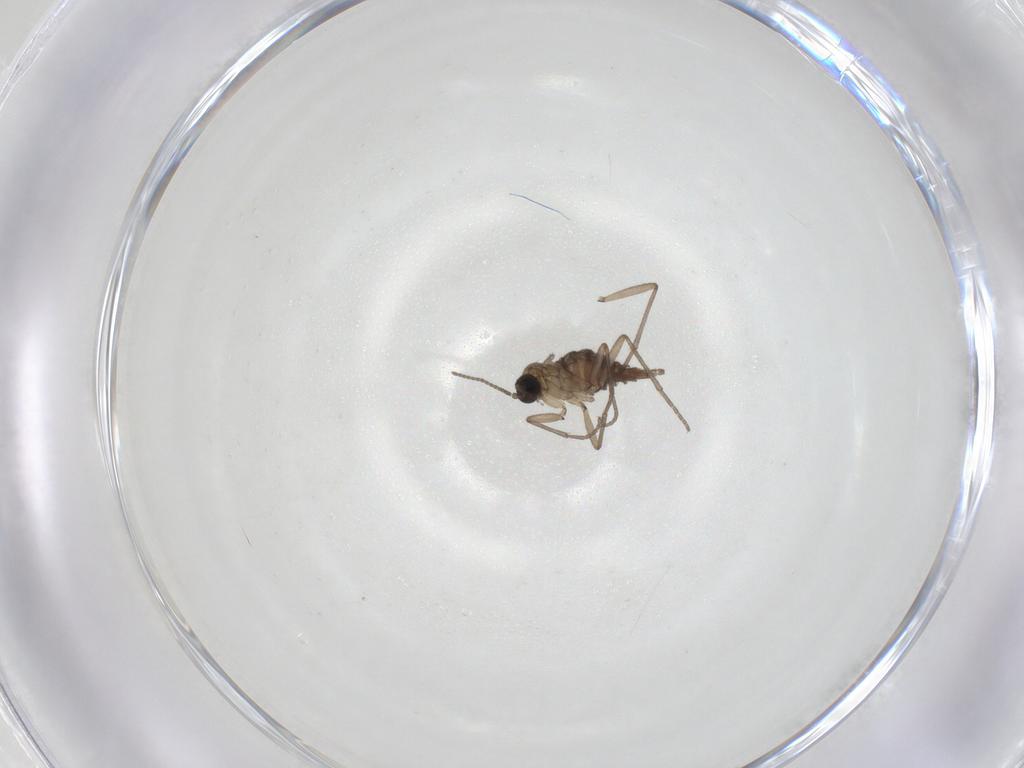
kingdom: Animalia
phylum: Arthropoda
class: Insecta
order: Diptera
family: Sciaridae
